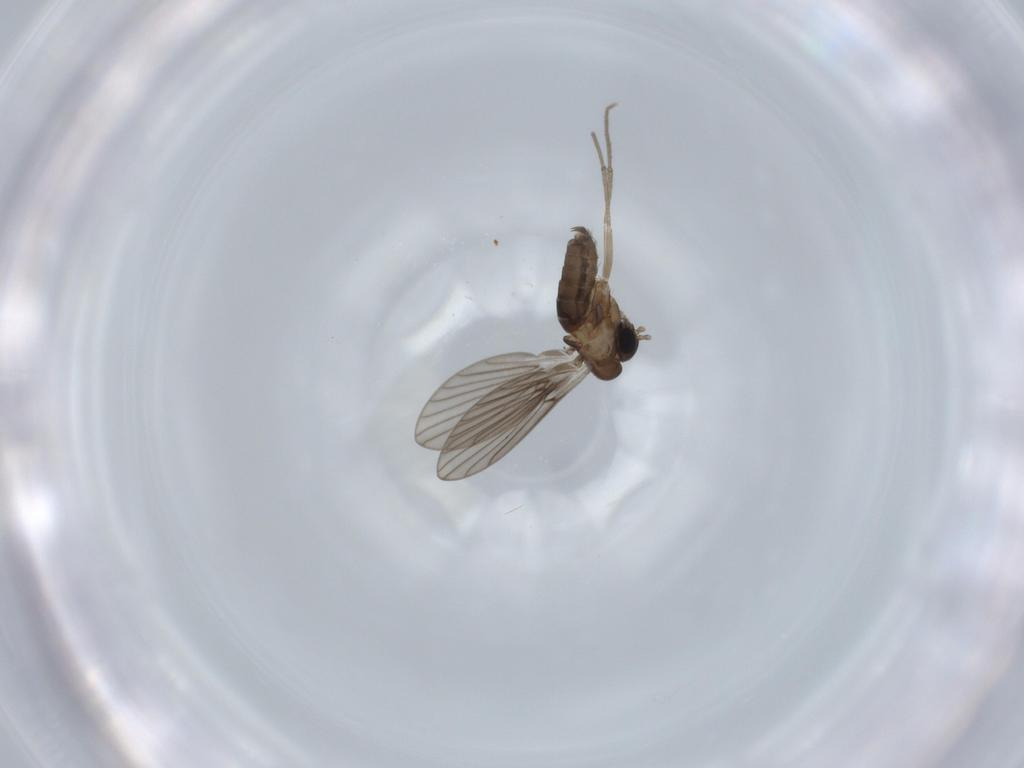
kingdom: Animalia
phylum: Arthropoda
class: Insecta
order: Diptera
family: Psychodidae
